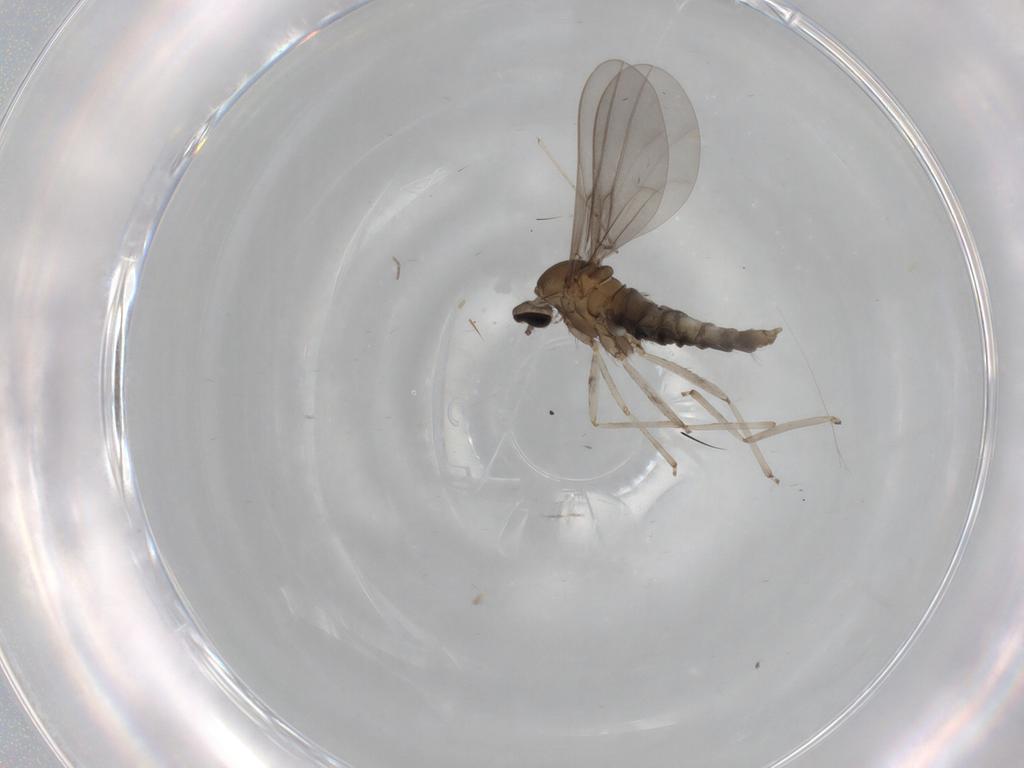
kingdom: Animalia
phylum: Arthropoda
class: Insecta
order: Diptera
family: Cecidomyiidae
